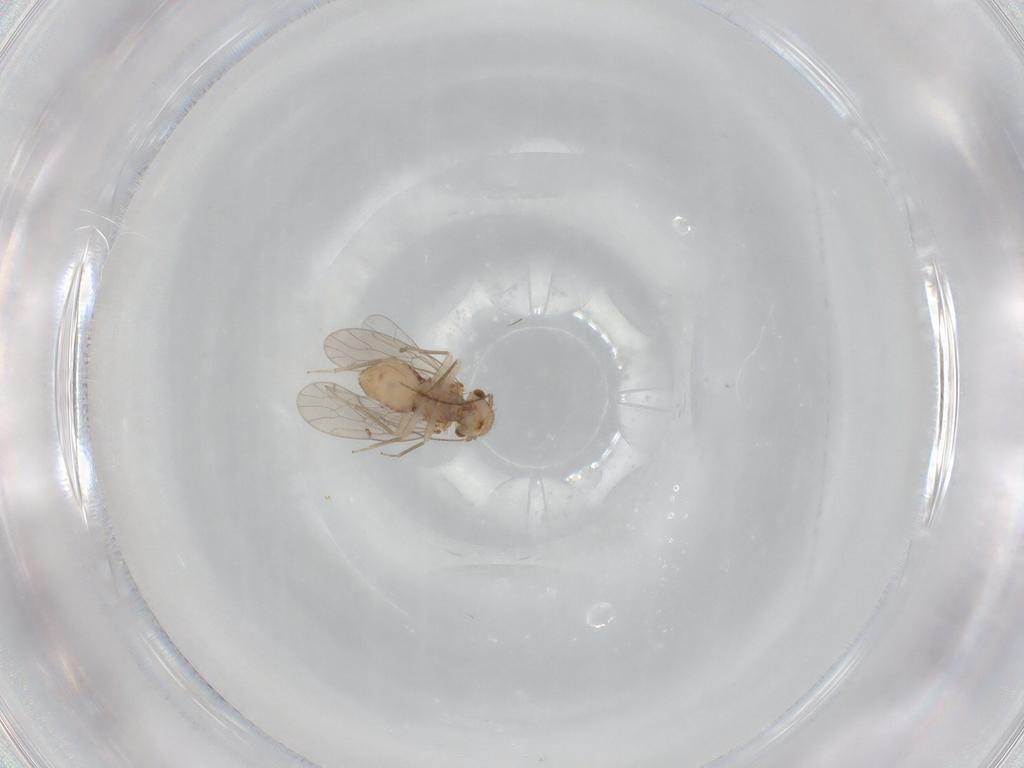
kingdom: Animalia
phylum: Arthropoda
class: Insecta
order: Psocodea
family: Ectopsocidae
